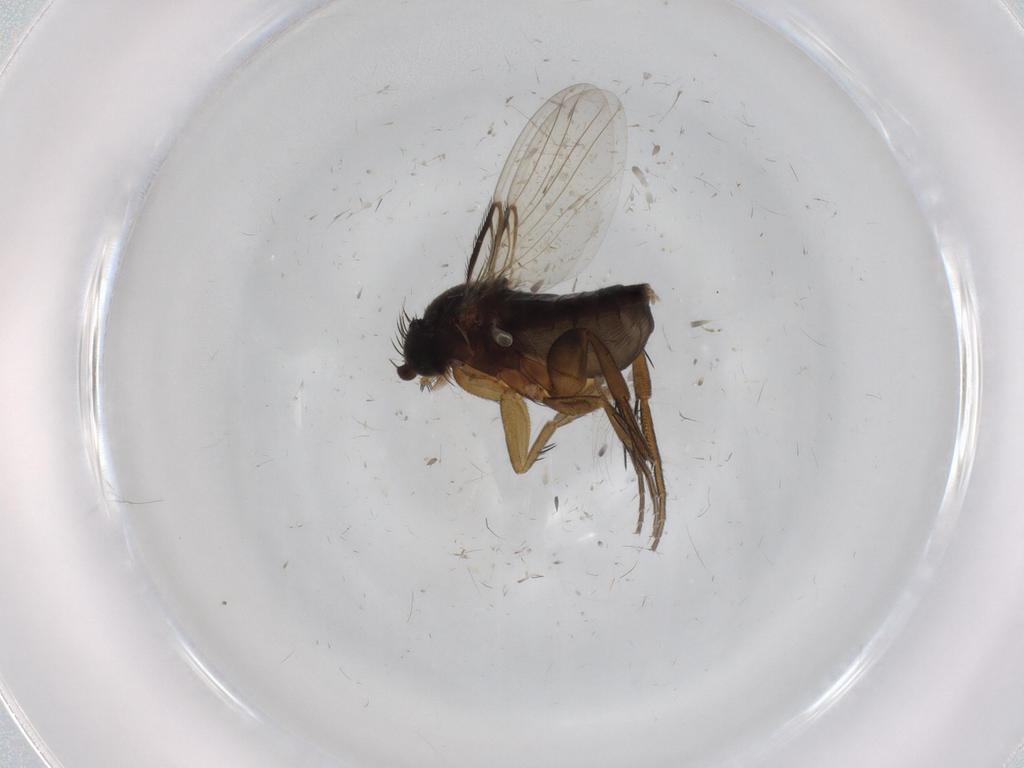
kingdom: Animalia
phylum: Arthropoda
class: Insecta
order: Diptera
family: Phoridae
